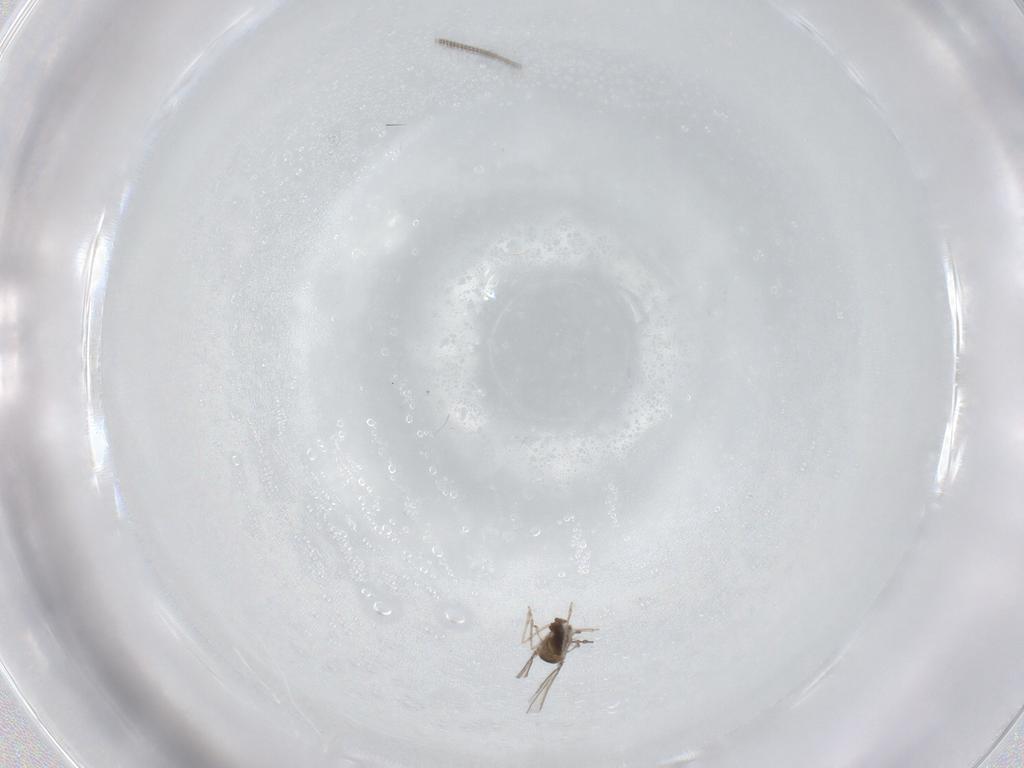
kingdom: Animalia
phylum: Arthropoda
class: Insecta
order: Diptera
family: Cecidomyiidae
